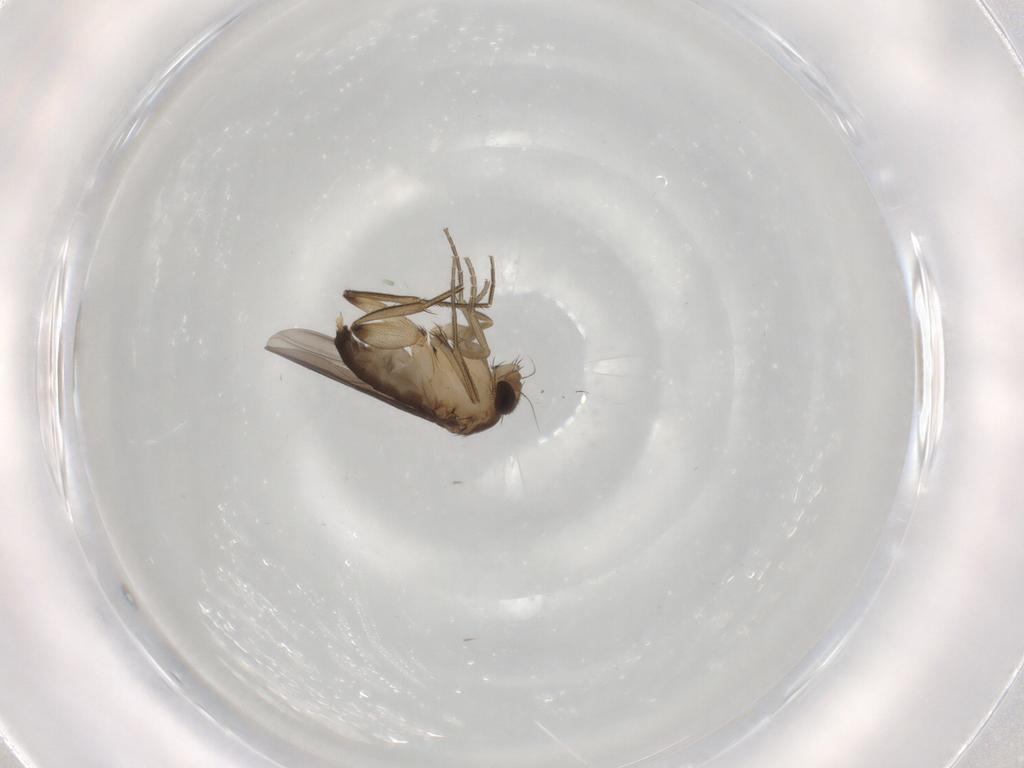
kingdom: Animalia
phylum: Arthropoda
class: Insecta
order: Diptera
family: Phoridae
